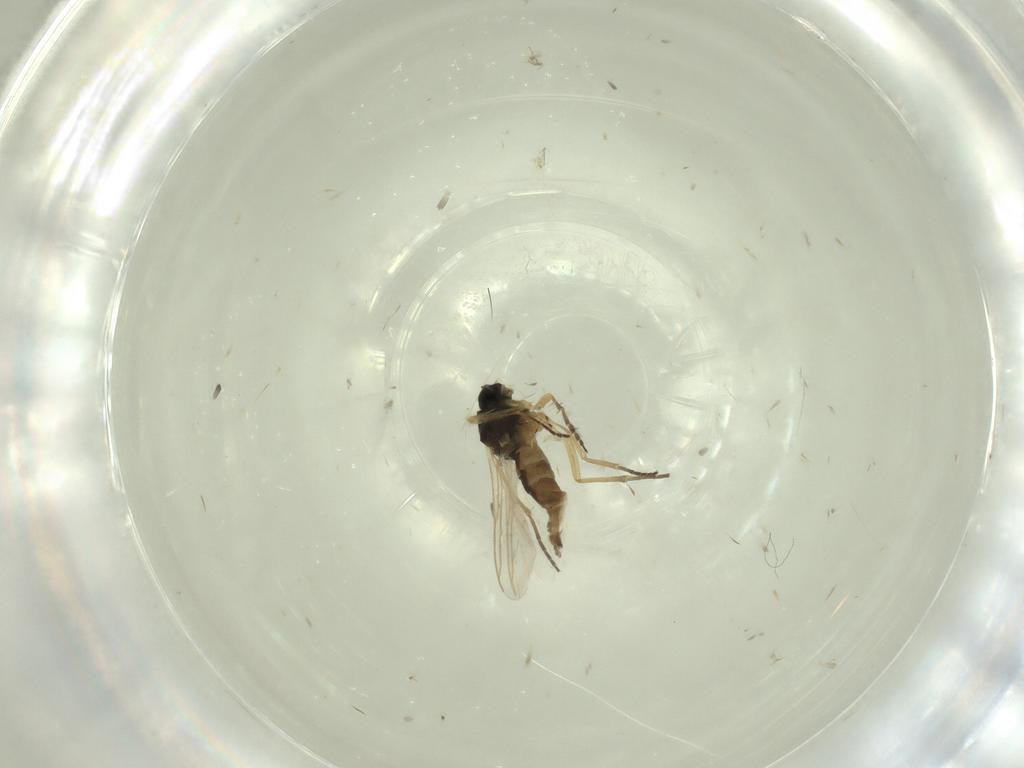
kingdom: Animalia
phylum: Arthropoda
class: Insecta
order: Diptera
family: Sciaridae
